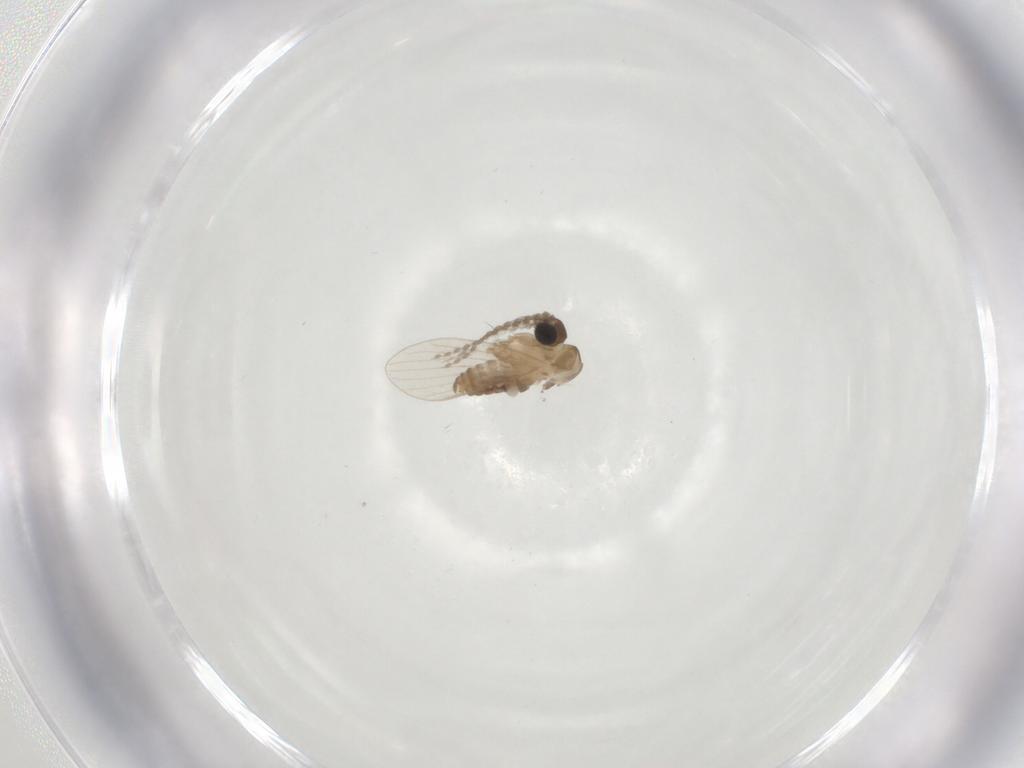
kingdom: Animalia
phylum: Arthropoda
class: Insecta
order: Diptera
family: Psychodidae
